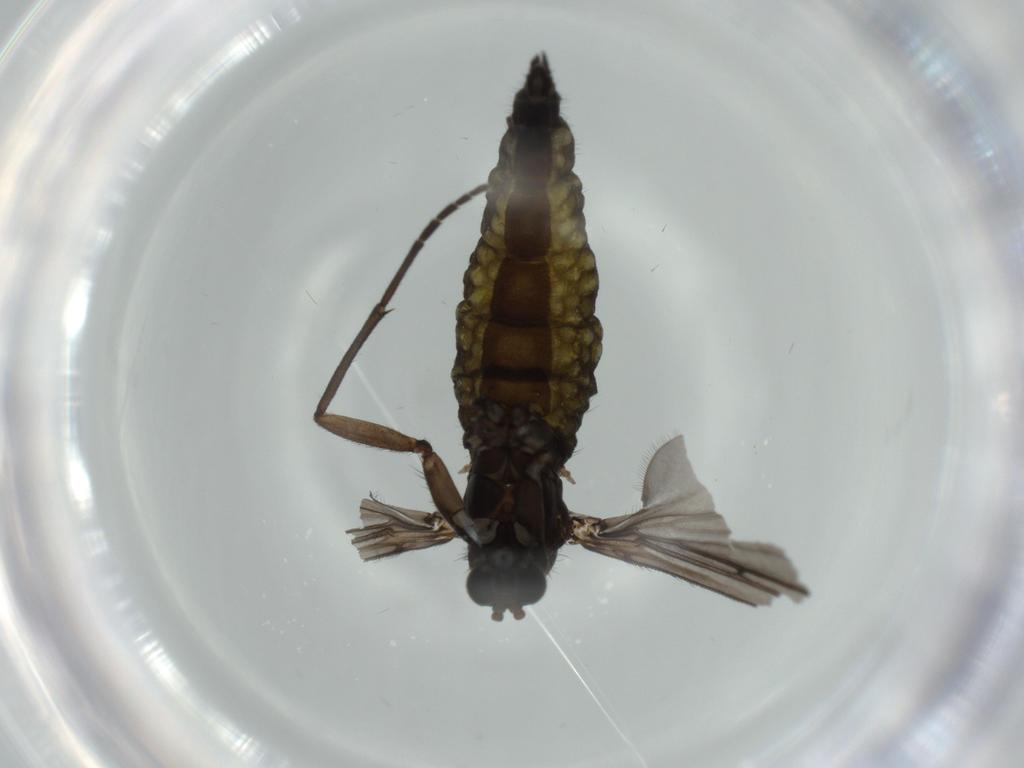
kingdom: Animalia
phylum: Arthropoda
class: Insecta
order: Diptera
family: Sciaridae
